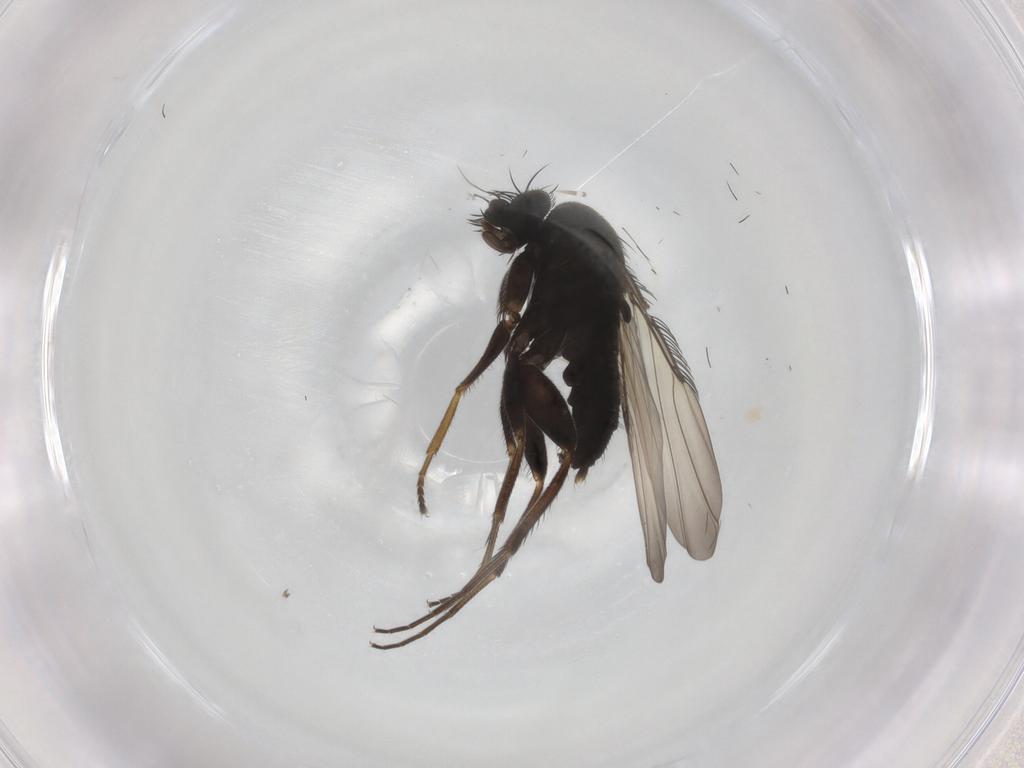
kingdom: Animalia
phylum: Arthropoda
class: Insecta
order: Diptera
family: Phoridae
